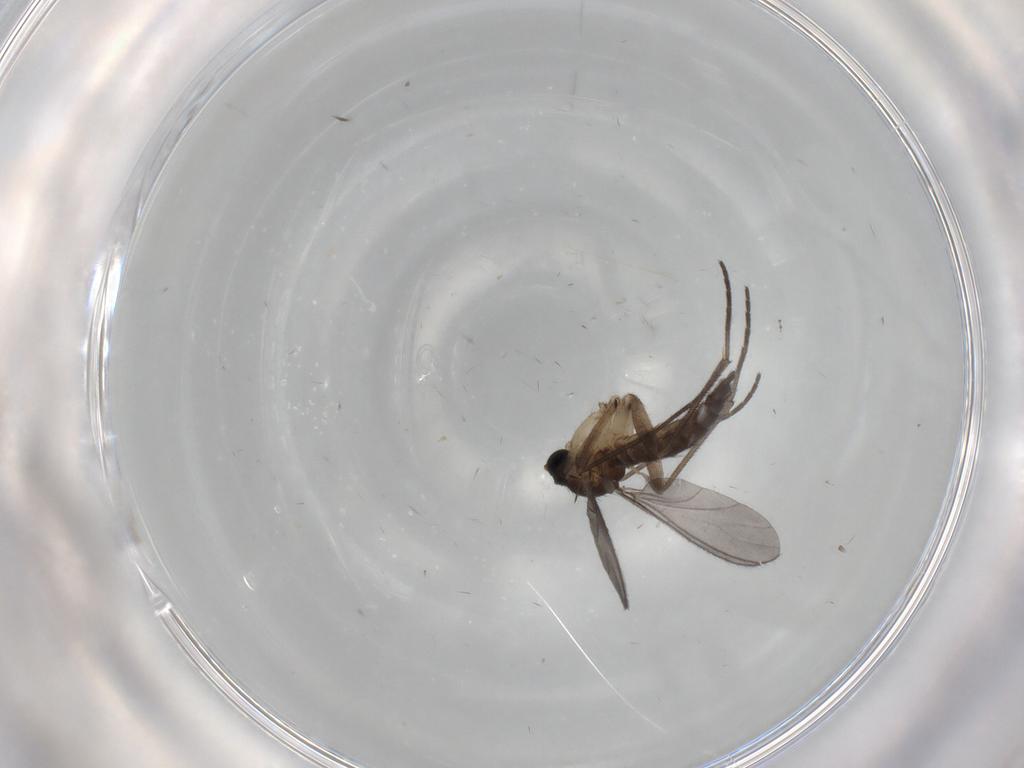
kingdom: Animalia
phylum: Arthropoda
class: Insecta
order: Diptera
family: Sciaridae
